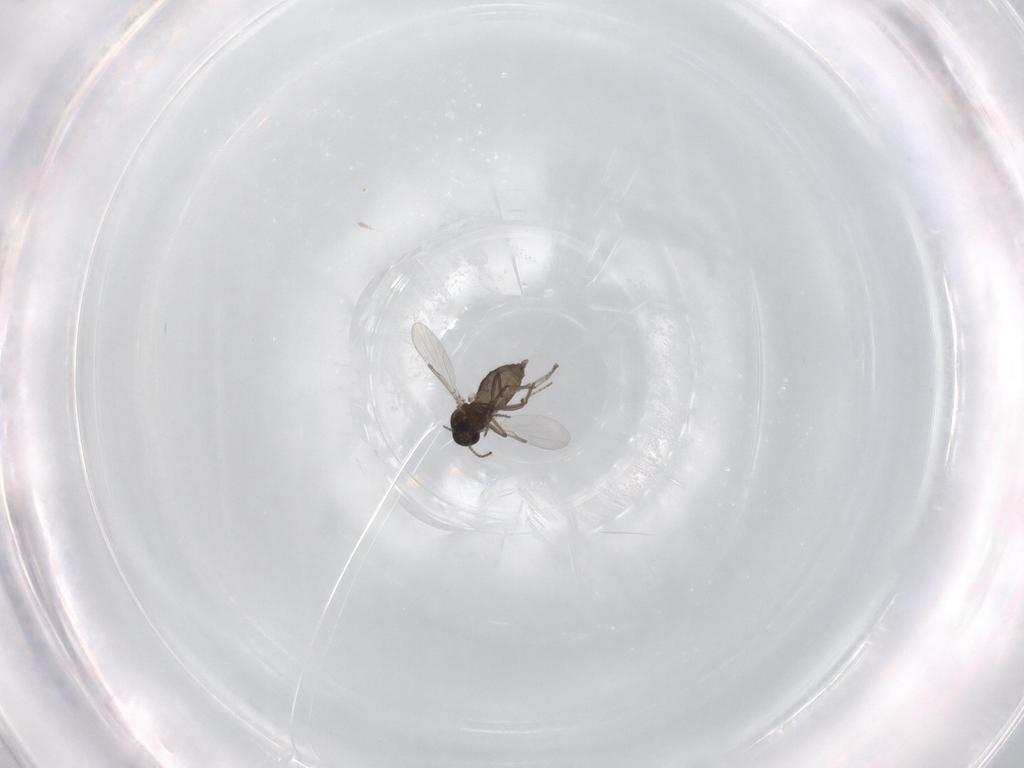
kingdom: Animalia
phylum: Arthropoda
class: Insecta
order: Diptera
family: Ceratopogonidae
